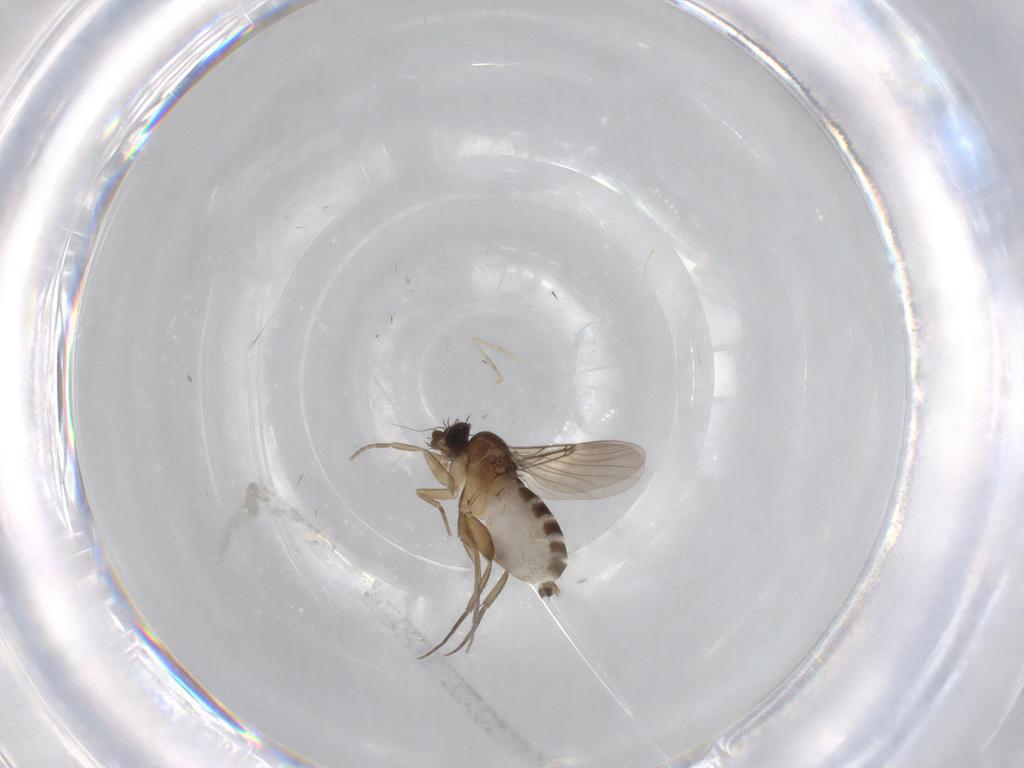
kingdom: Animalia
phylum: Arthropoda
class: Insecta
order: Diptera
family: Phoridae
